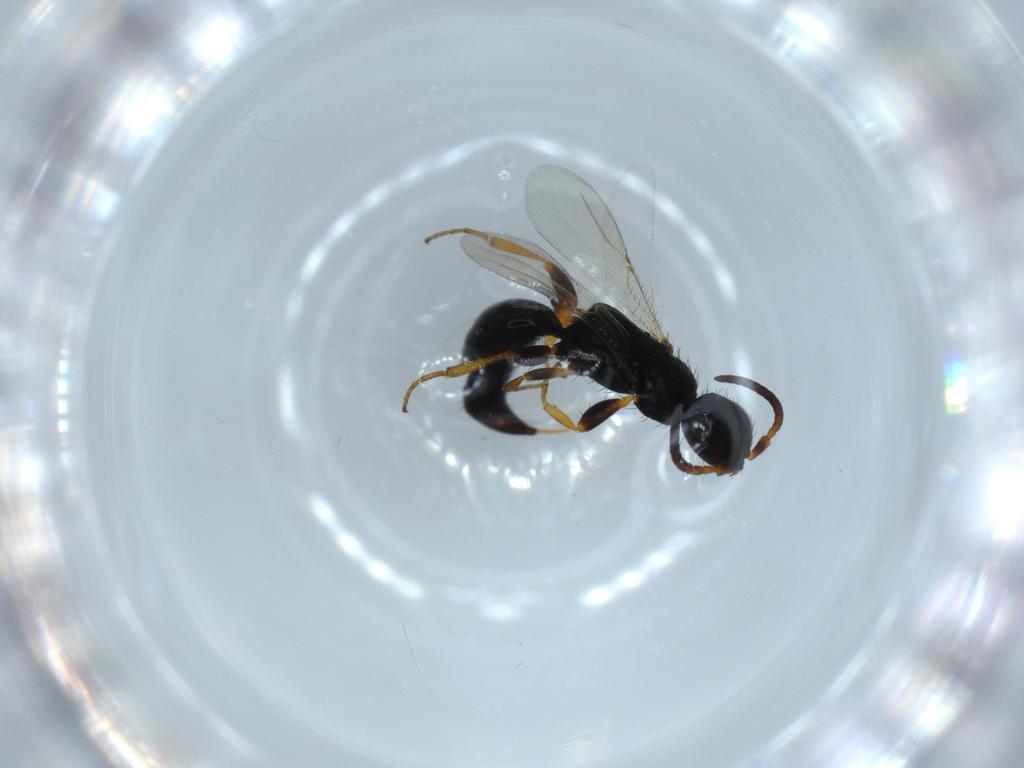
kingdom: Animalia
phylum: Arthropoda
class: Insecta
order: Hymenoptera
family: Bethylidae
